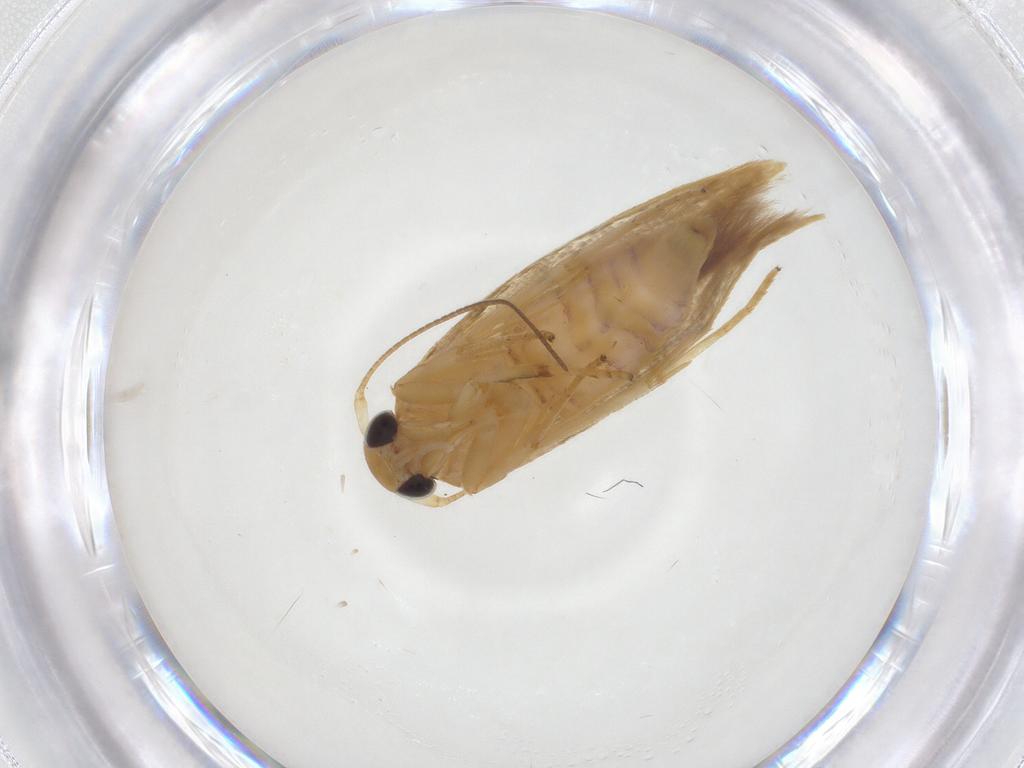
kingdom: Animalia
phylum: Arthropoda
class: Insecta
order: Lepidoptera
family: Stathmopodidae
